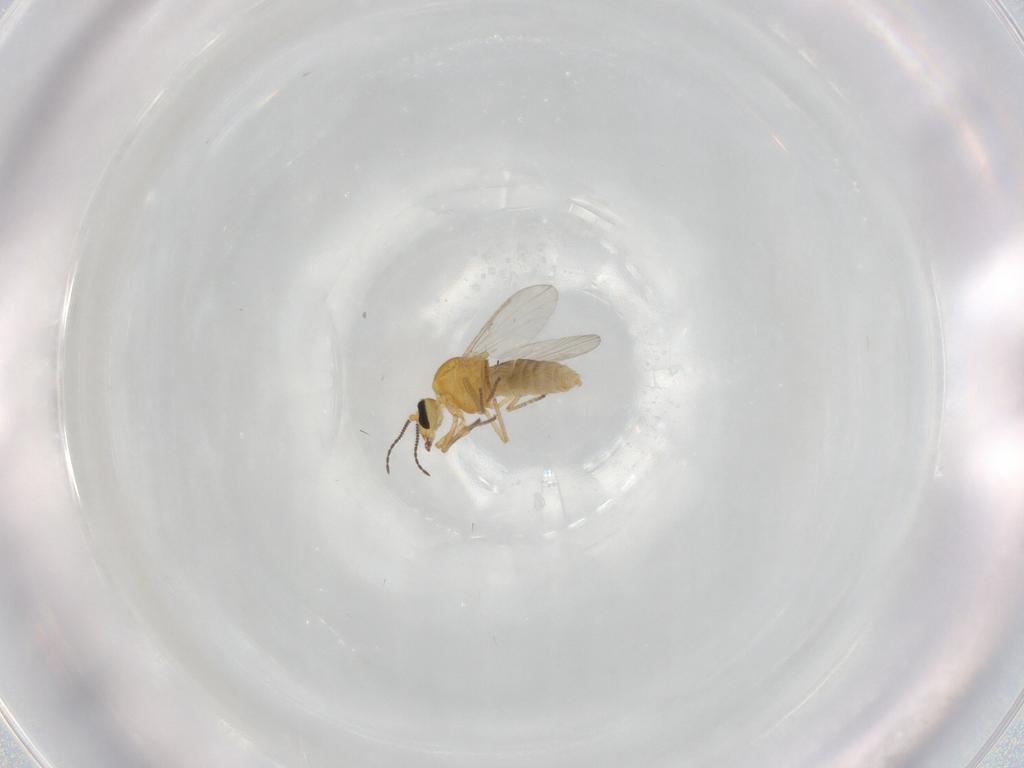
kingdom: Animalia
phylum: Arthropoda
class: Insecta
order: Diptera
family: Ceratopogonidae
